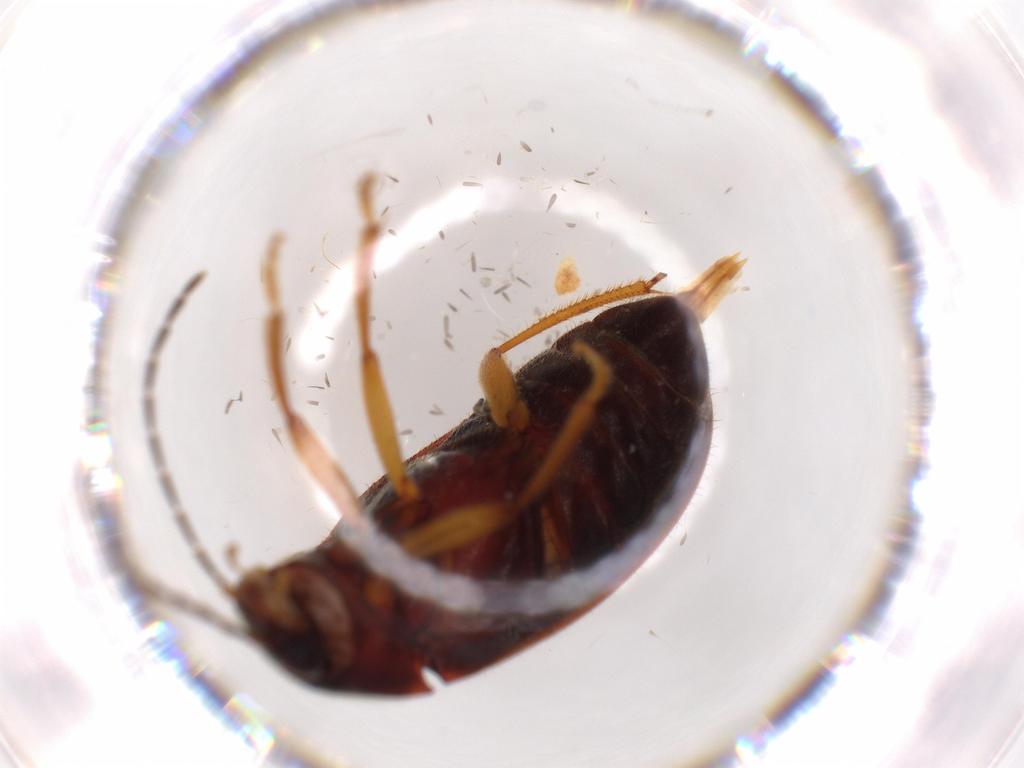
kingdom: Animalia
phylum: Arthropoda
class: Insecta
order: Coleoptera
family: Ptilodactylidae
